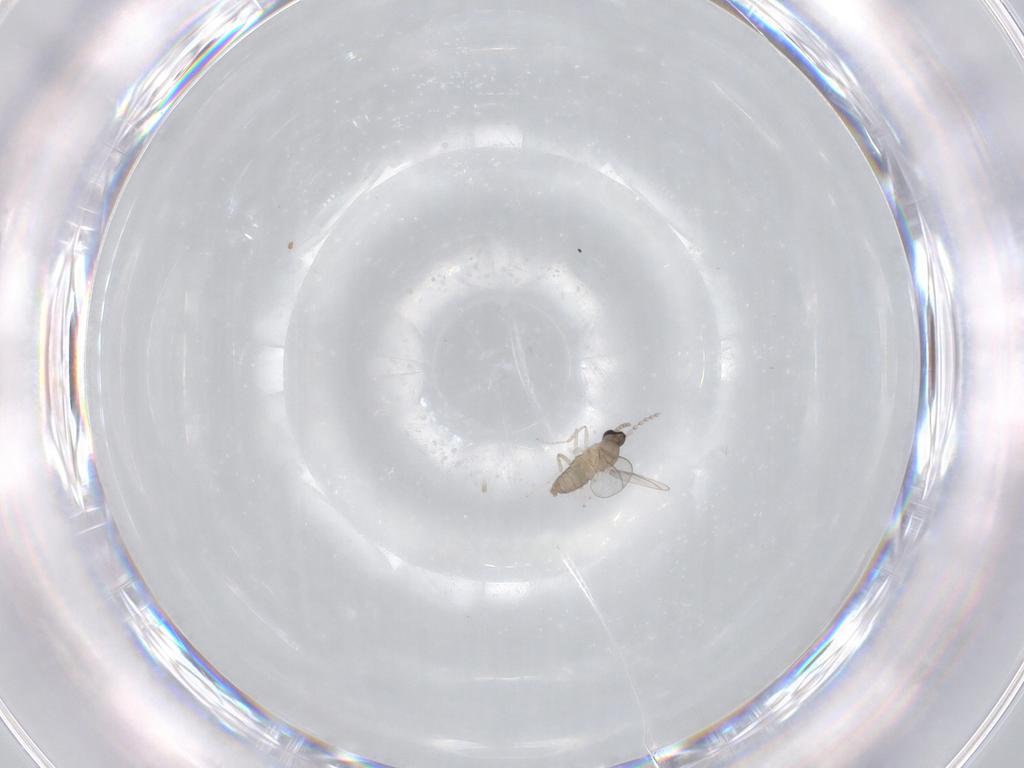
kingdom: Animalia
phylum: Arthropoda
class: Insecta
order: Diptera
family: Cecidomyiidae
